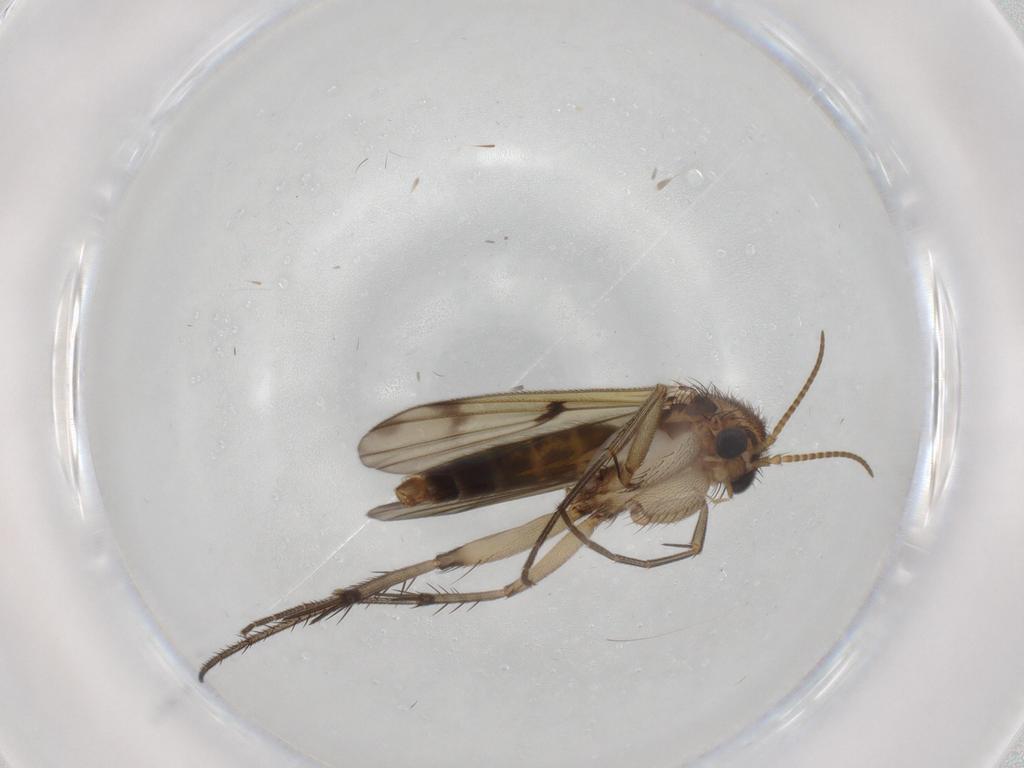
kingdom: Animalia
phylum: Arthropoda
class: Insecta
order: Diptera
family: Mycetophilidae
